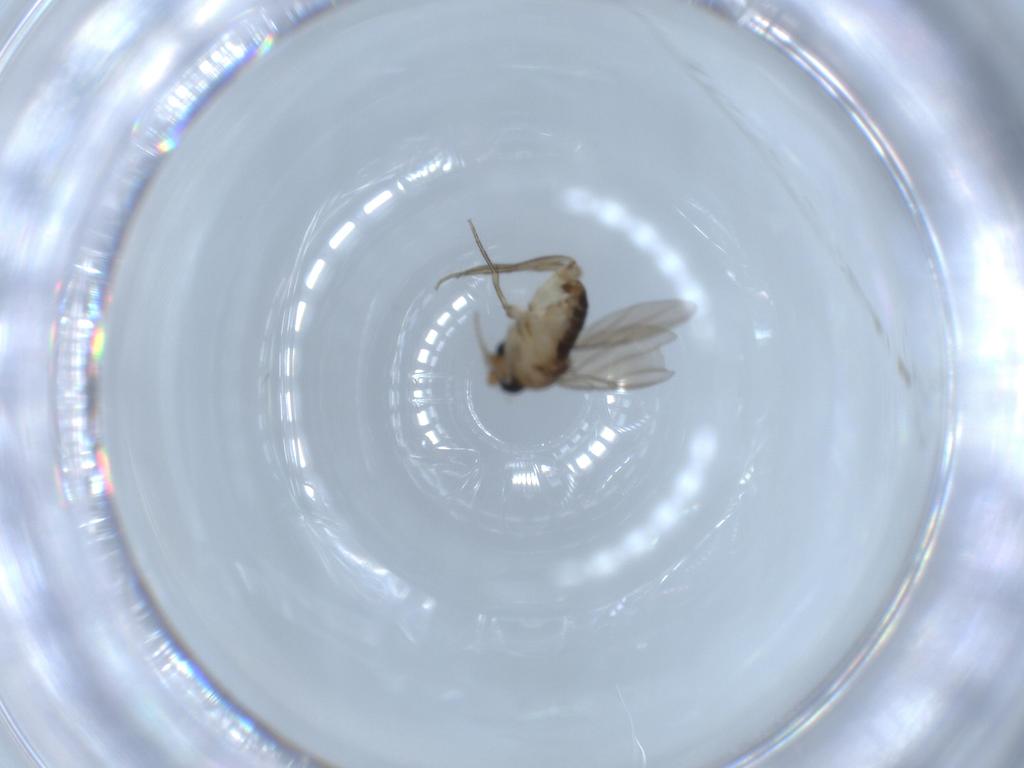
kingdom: Animalia
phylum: Arthropoda
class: Insecta
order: Diptera
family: Phoridae
